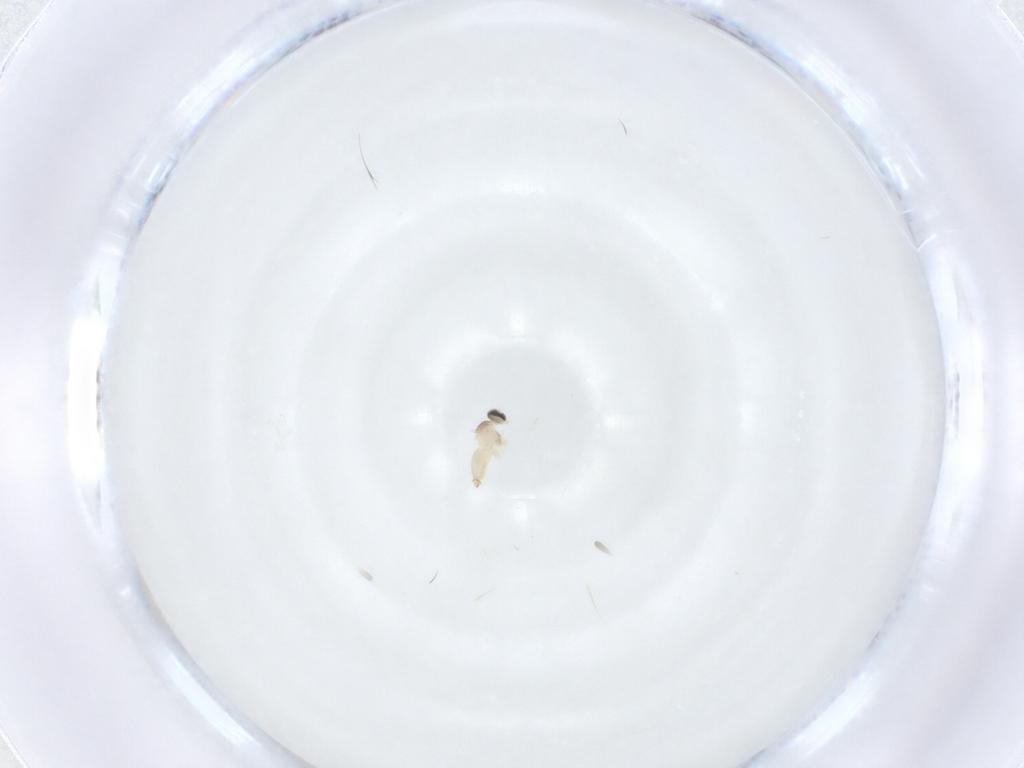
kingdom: Animalia
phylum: Arthropoda
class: Insecta
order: Diptera
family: Cecidomyiidae
